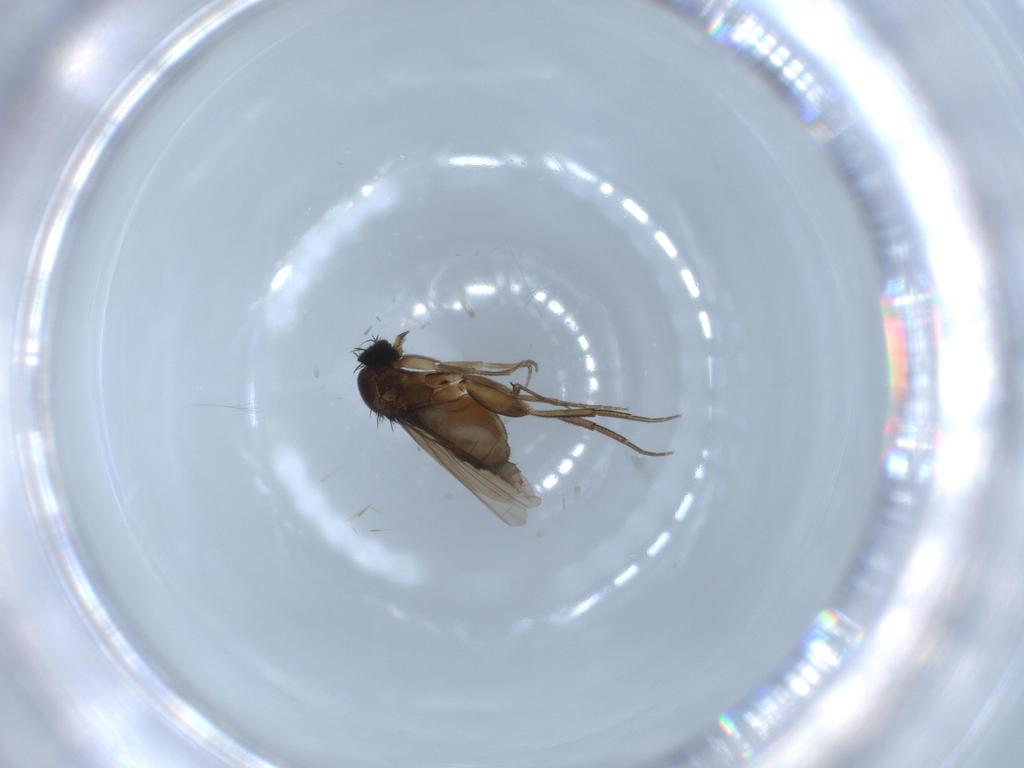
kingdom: Animalia
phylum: Arthropoda
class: Insecta
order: Diptera
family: Phoridae
